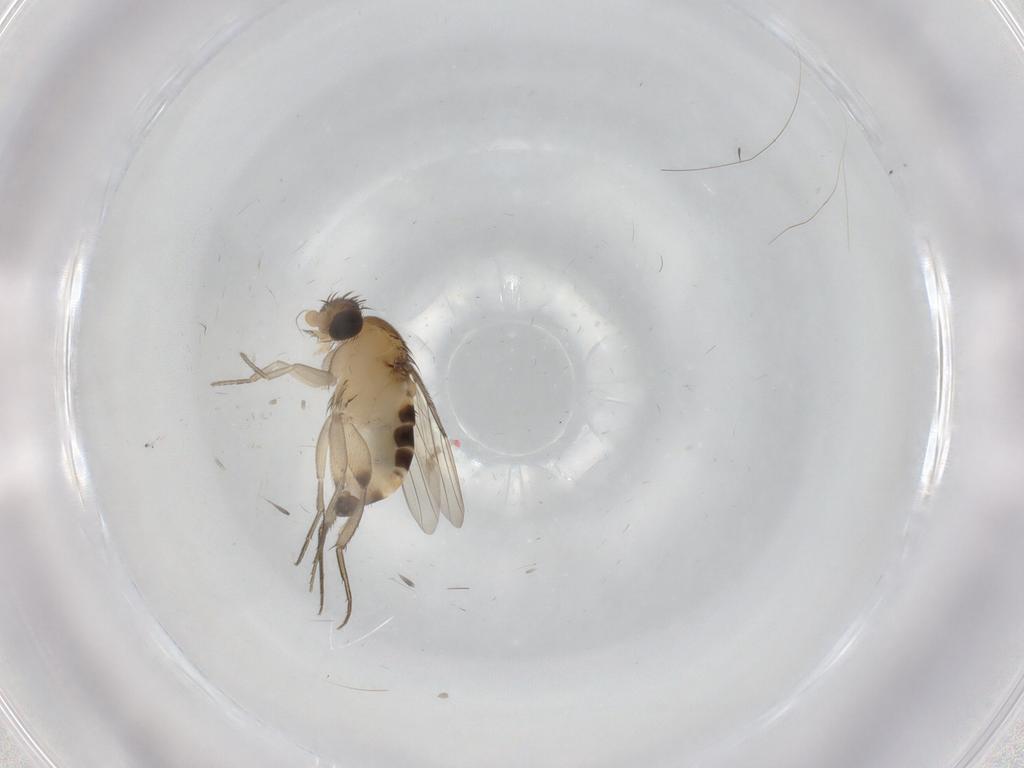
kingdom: Animalia
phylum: Arthropoda
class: Insecta
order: Diptera
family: Phoridae
